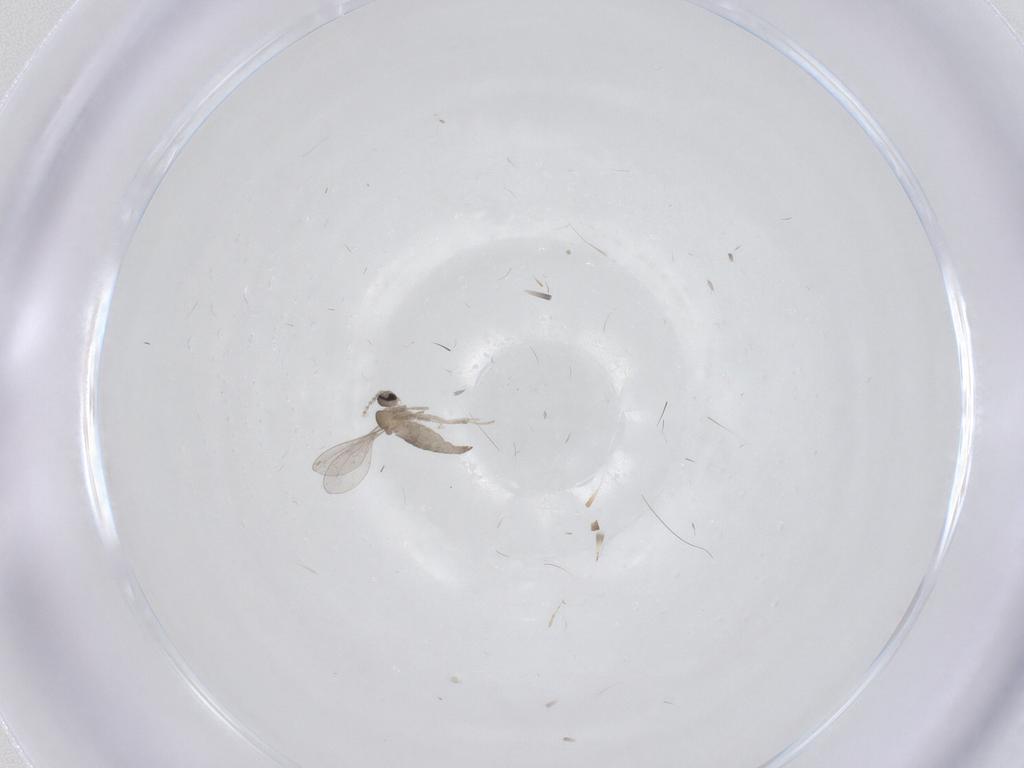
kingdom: Animalia
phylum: Arthropoda
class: Insecta
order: Diptera
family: Cecidomyiidae
